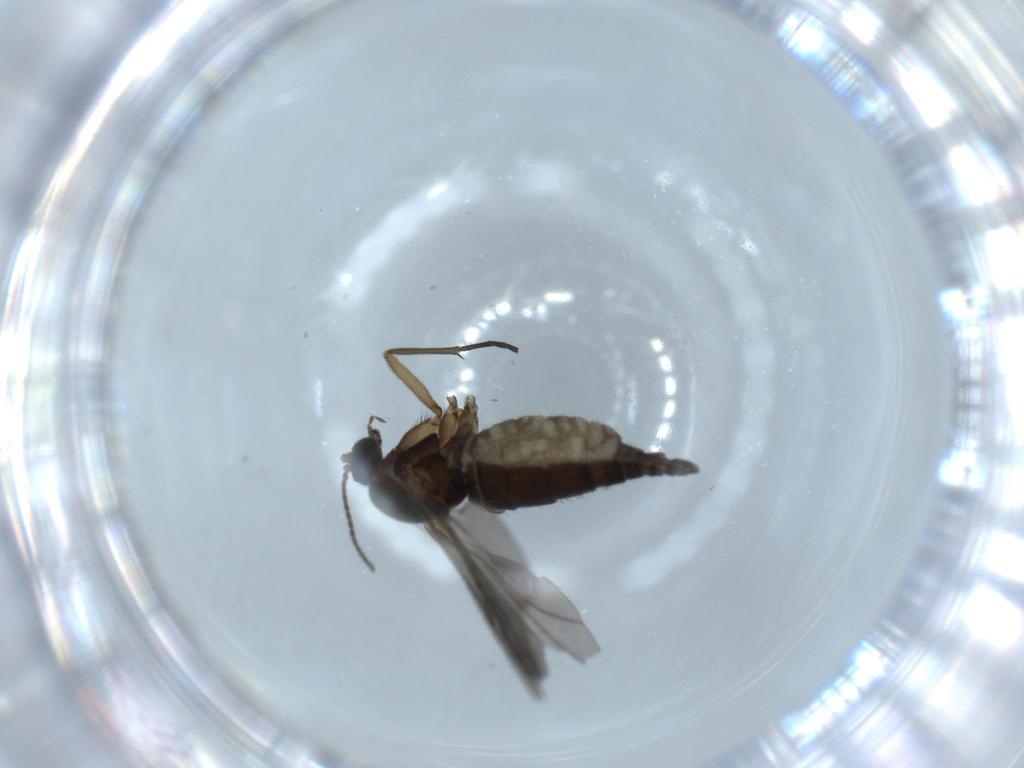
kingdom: Animalia
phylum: Arthropoda
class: Insecta
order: Diptera
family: Sciaridae
